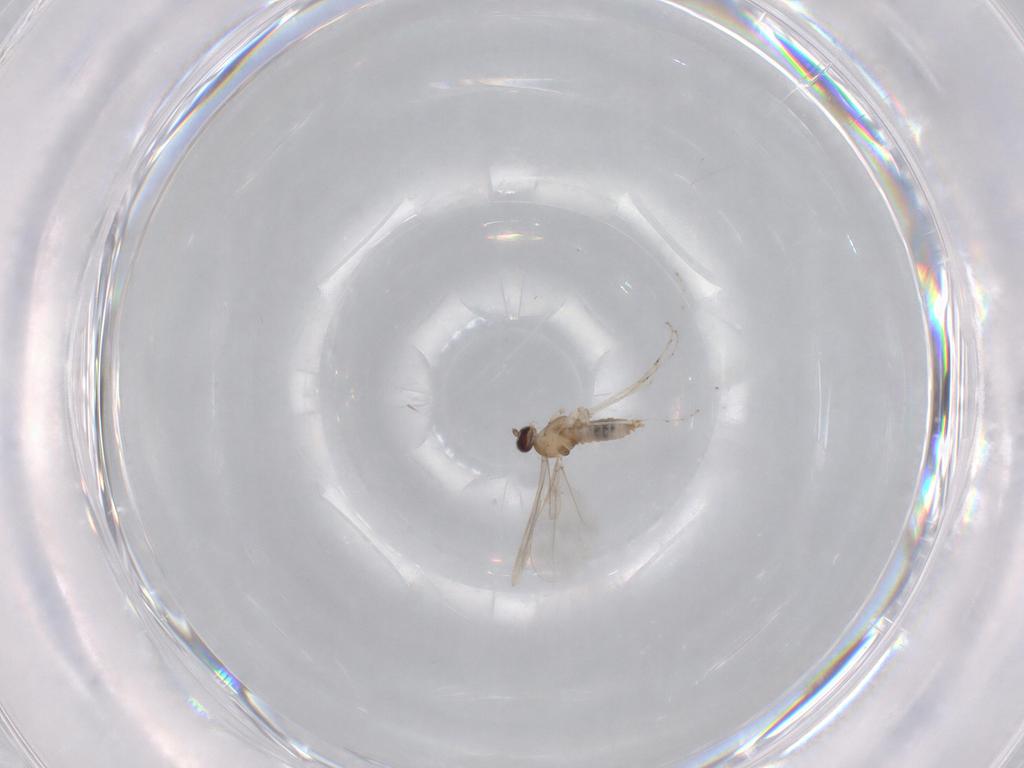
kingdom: Animalia
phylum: Arthropoda
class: Insecta
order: Diptera
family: Cecidomyiidae
